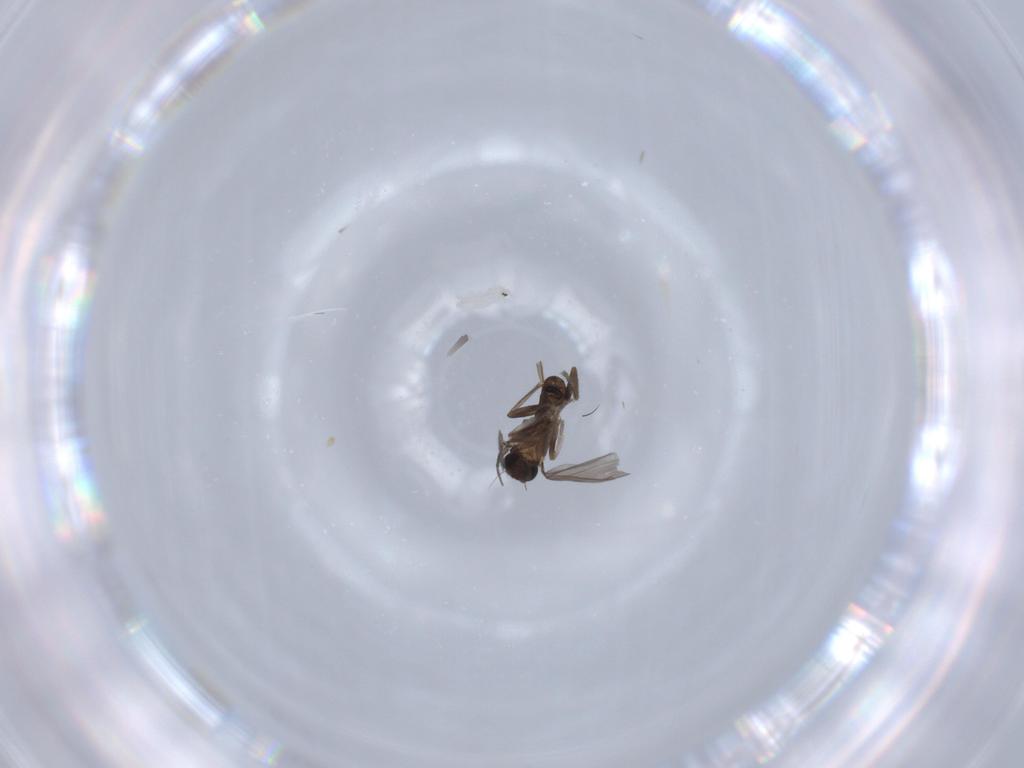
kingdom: Animalia
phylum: Arthropoda
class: Insecta
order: Diptera
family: Phoridae
